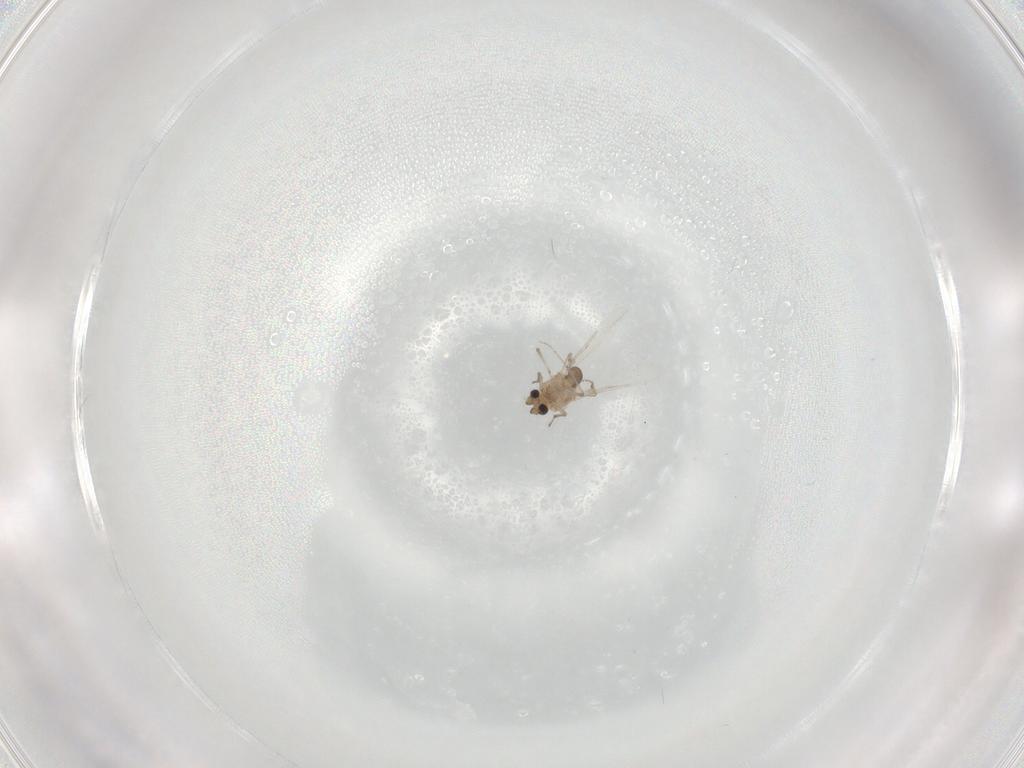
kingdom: Animalia
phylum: Arthropoda
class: Insecta
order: Diptera
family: Ceratopogonidae
